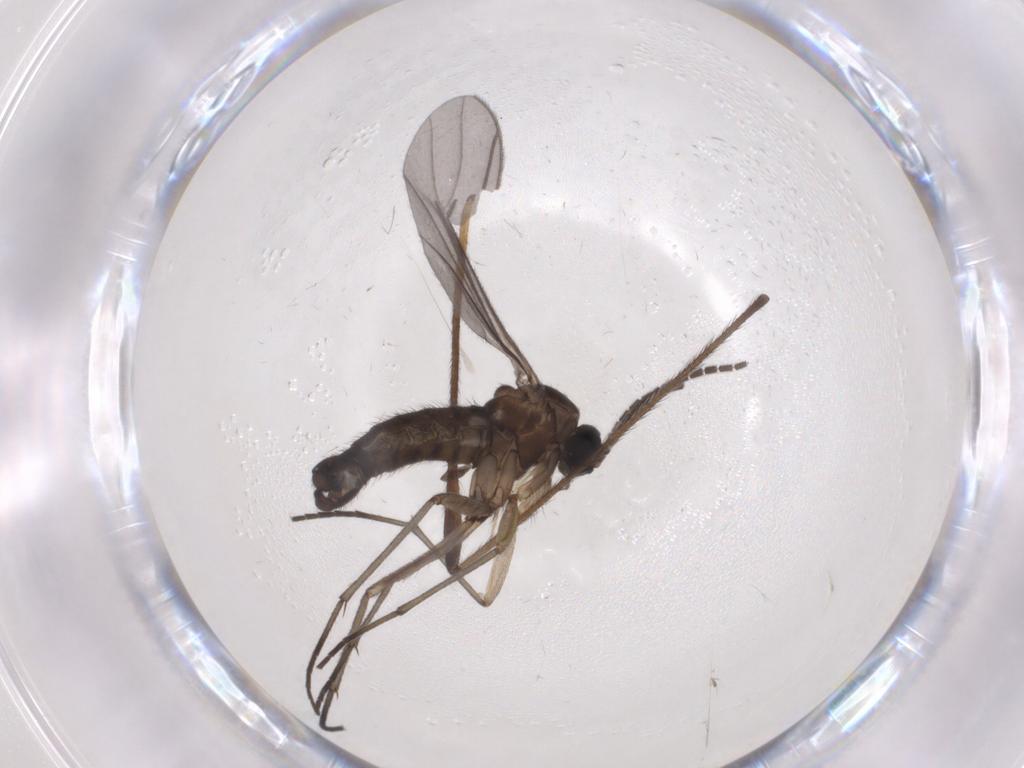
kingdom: Animalia
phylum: Arthropoda
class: Insecta
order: Diptera
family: Sciaridae
